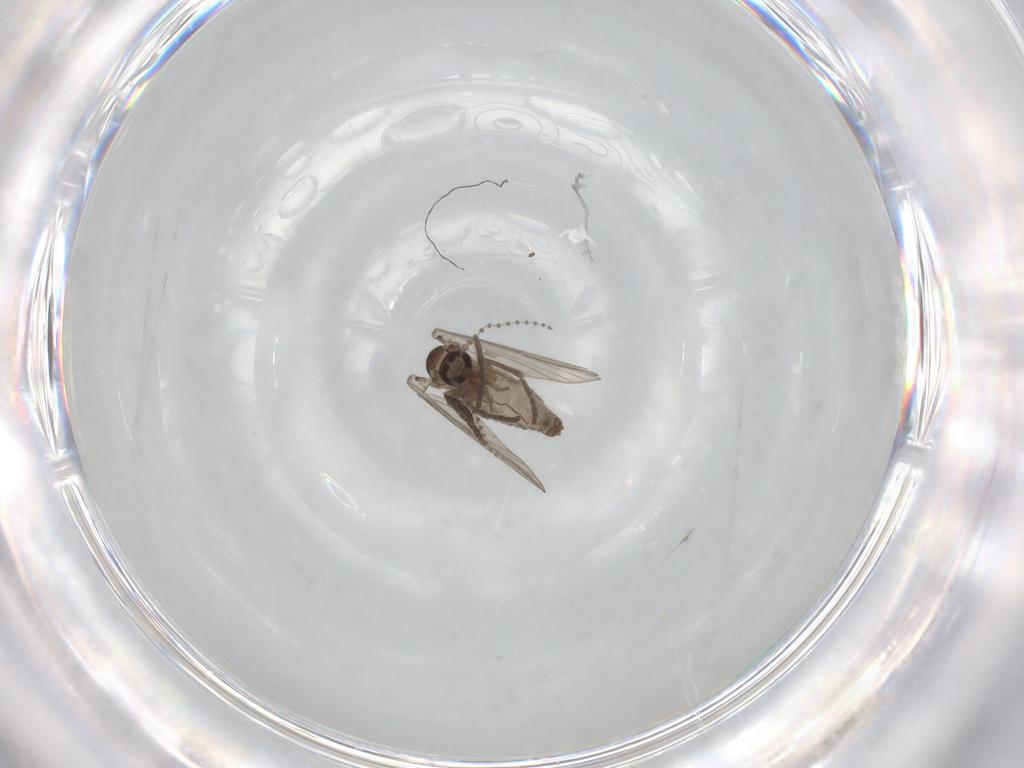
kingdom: Animalia
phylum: Arthropoda
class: Insecta
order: Diptera
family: Psychodidae
